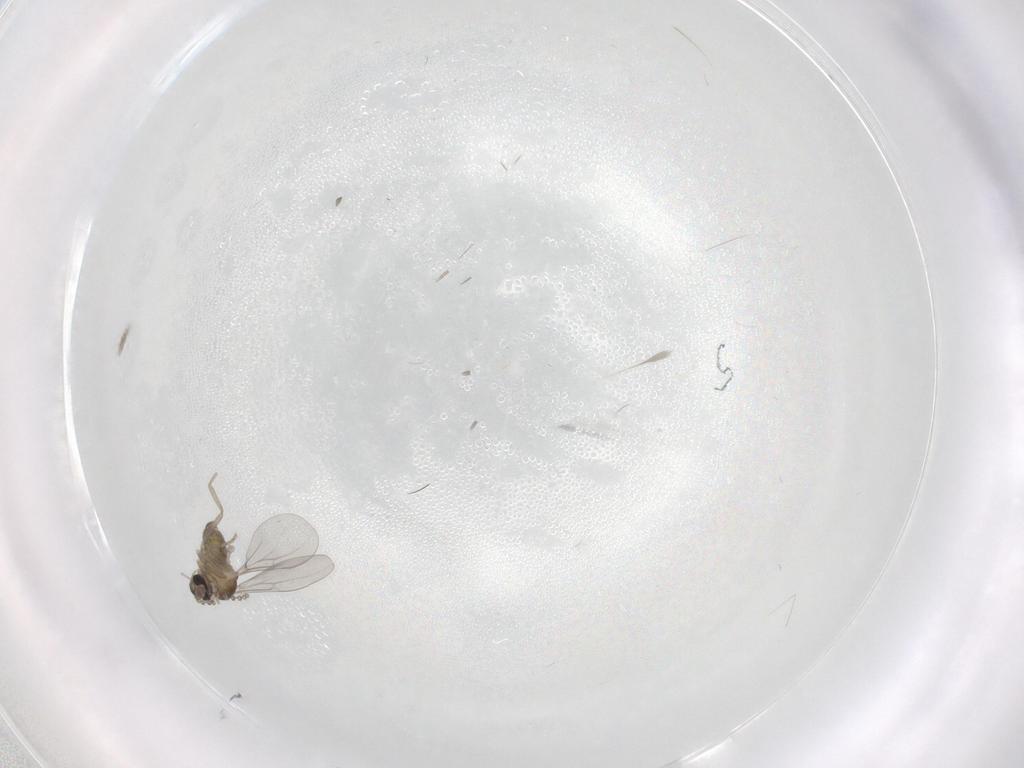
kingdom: Animalia
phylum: Arthropoda
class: Insecta
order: Diptera
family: Cecidomyiidae
